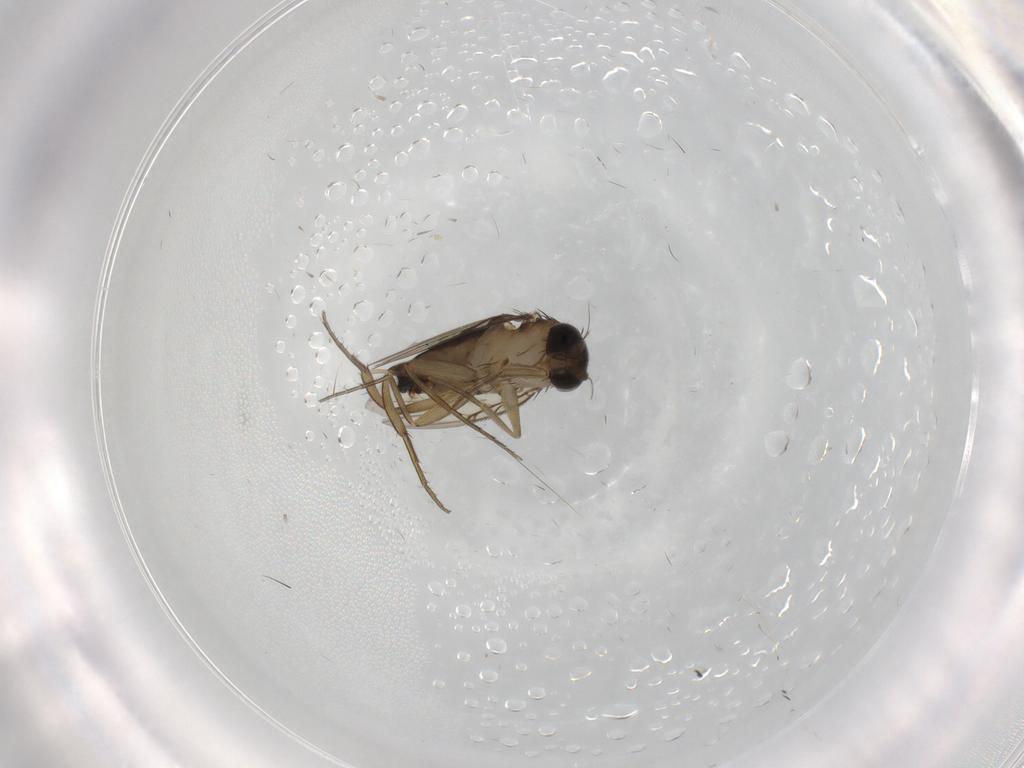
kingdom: Animalia
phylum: Arthropoda
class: Insecta
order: Diptera
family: Phoridae
